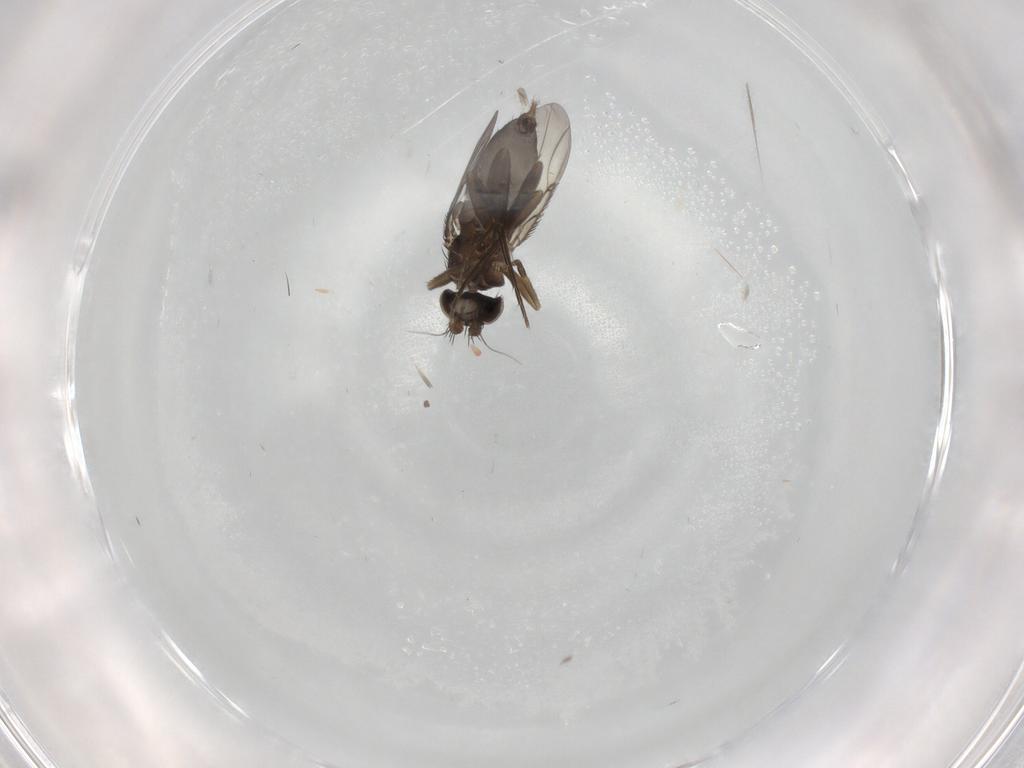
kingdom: Animalia
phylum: Arthropoda
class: Insecta
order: Diptera
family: Phoridae
